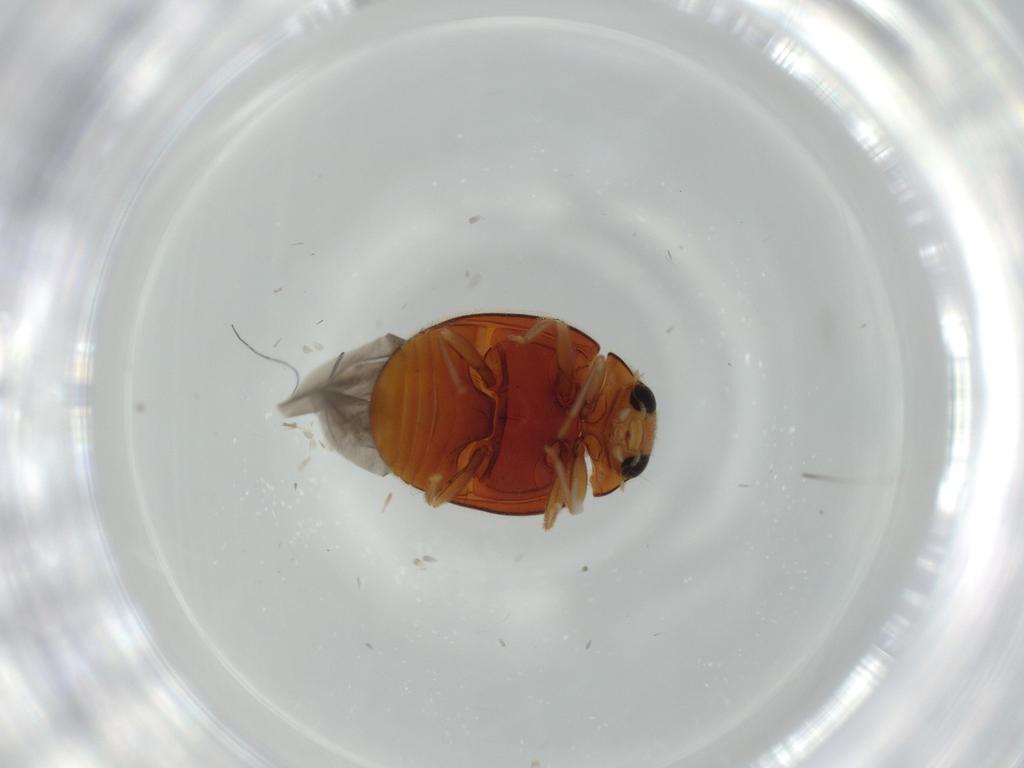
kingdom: Animalia
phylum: Arthropoda
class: Insecta
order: Coleoptera
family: Coccinellidae
